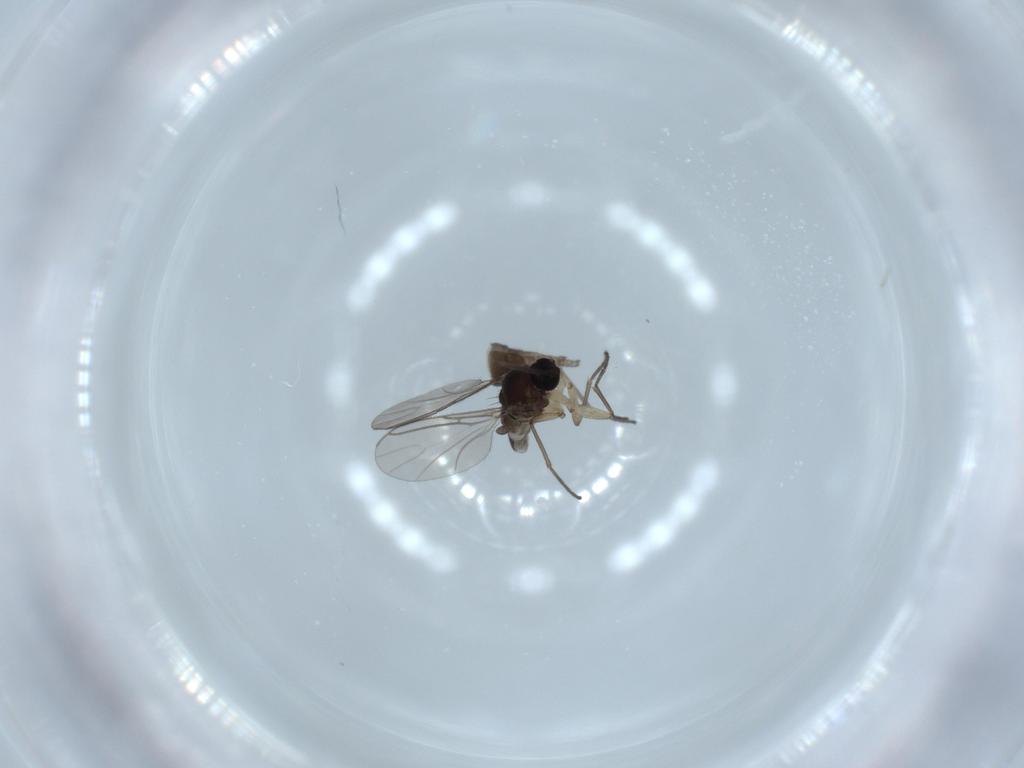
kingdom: Animalia
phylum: Arthropoda
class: Insecta
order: Diptera
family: Sciaridae
